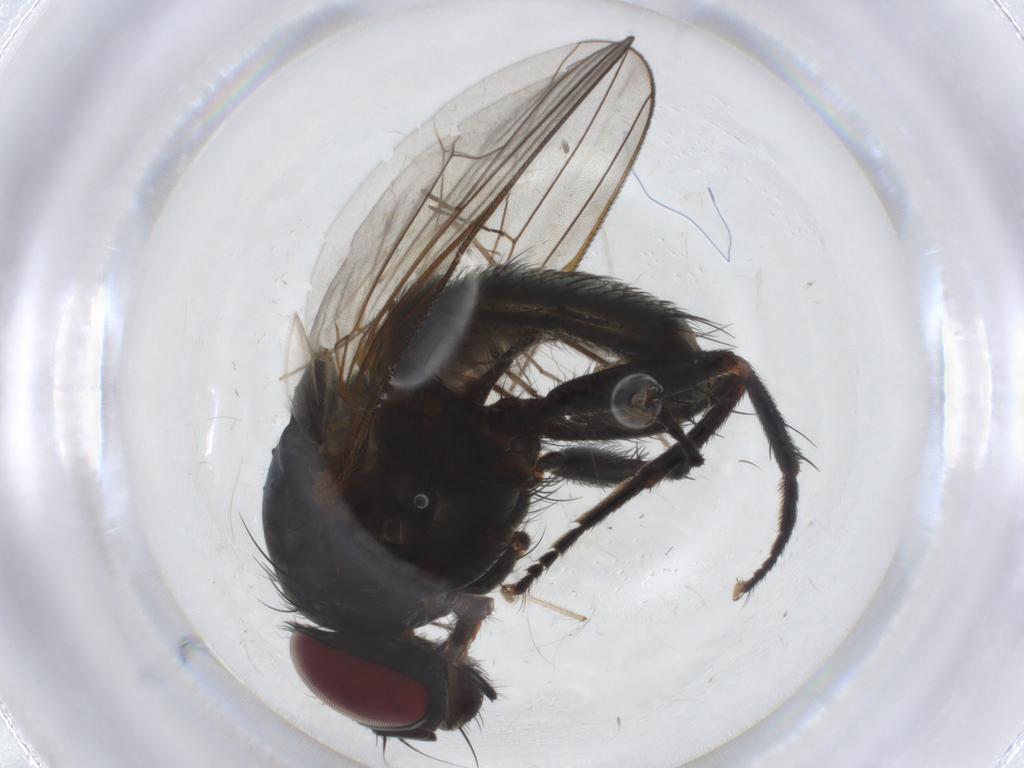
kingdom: Animalia
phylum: Arthropoda
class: Insecta
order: Diptera
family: Fannia
